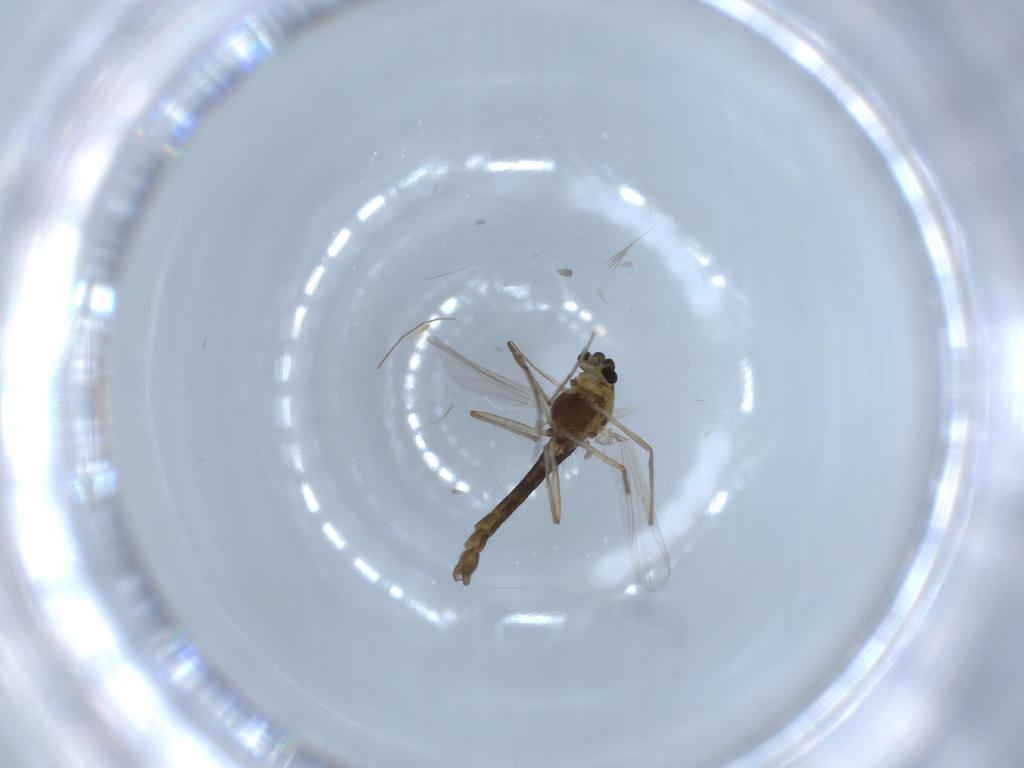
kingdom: Animalia
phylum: Arthropoda
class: Insecta
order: Diptera
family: Chironomidae
